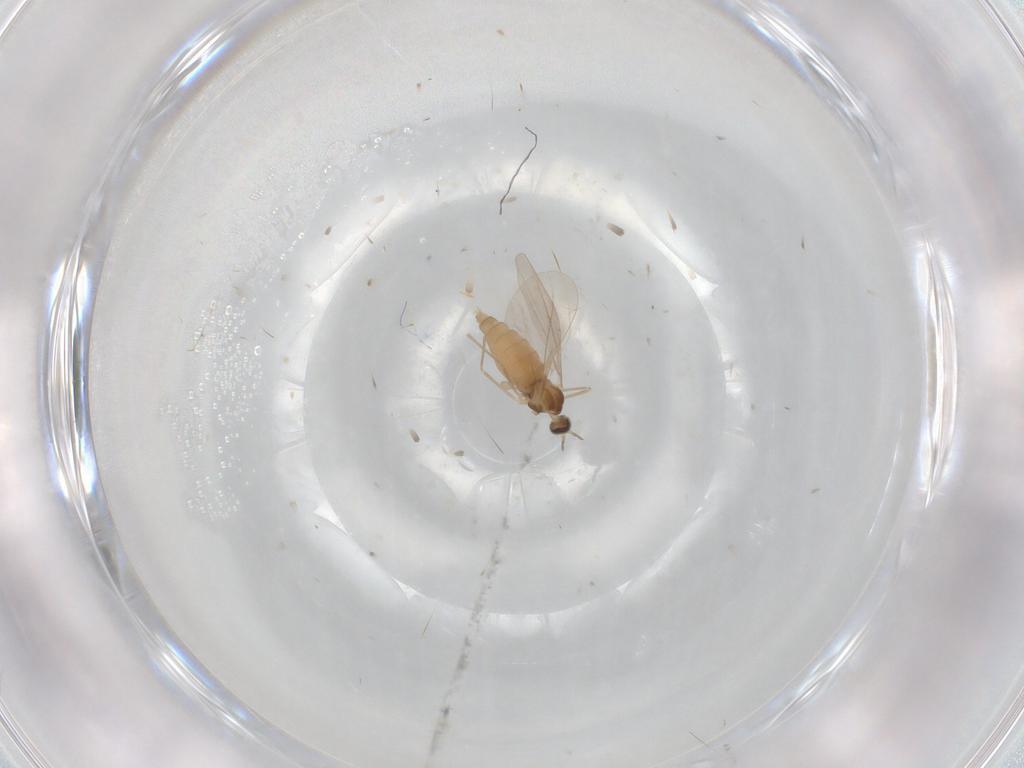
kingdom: Animalia
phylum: Arthropoda
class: Insecta
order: Diptera
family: Cecidomyiidae
